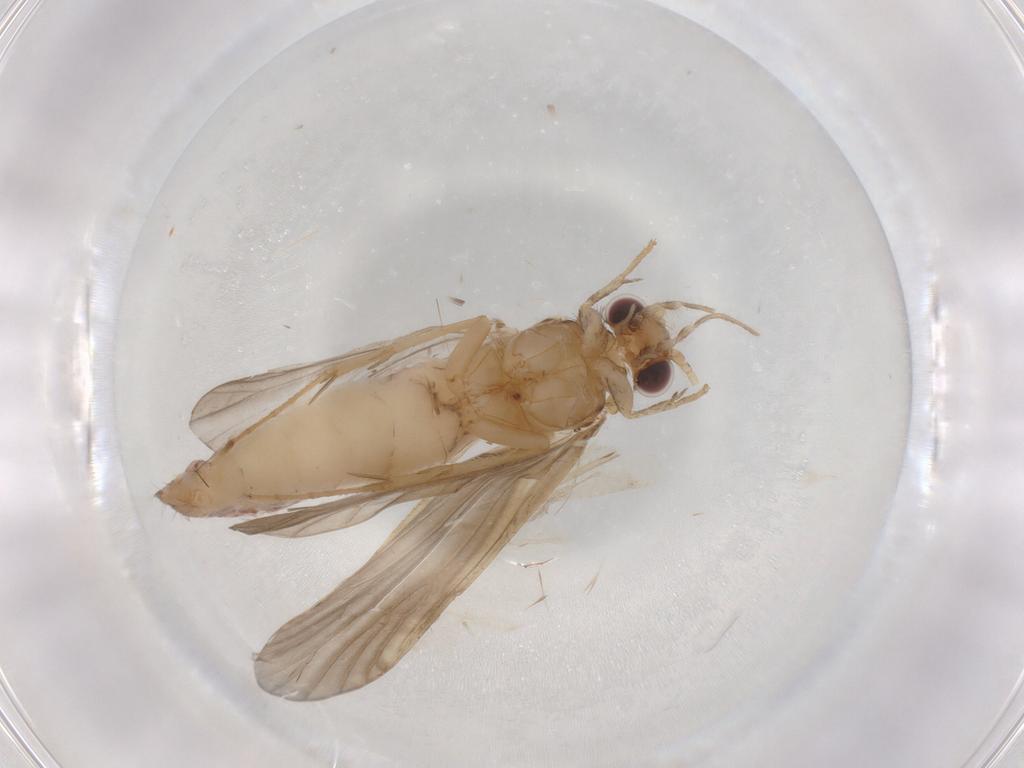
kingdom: Animalia
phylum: Arthropoda
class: Insecta
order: Trichoptera
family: Ecnomidae
